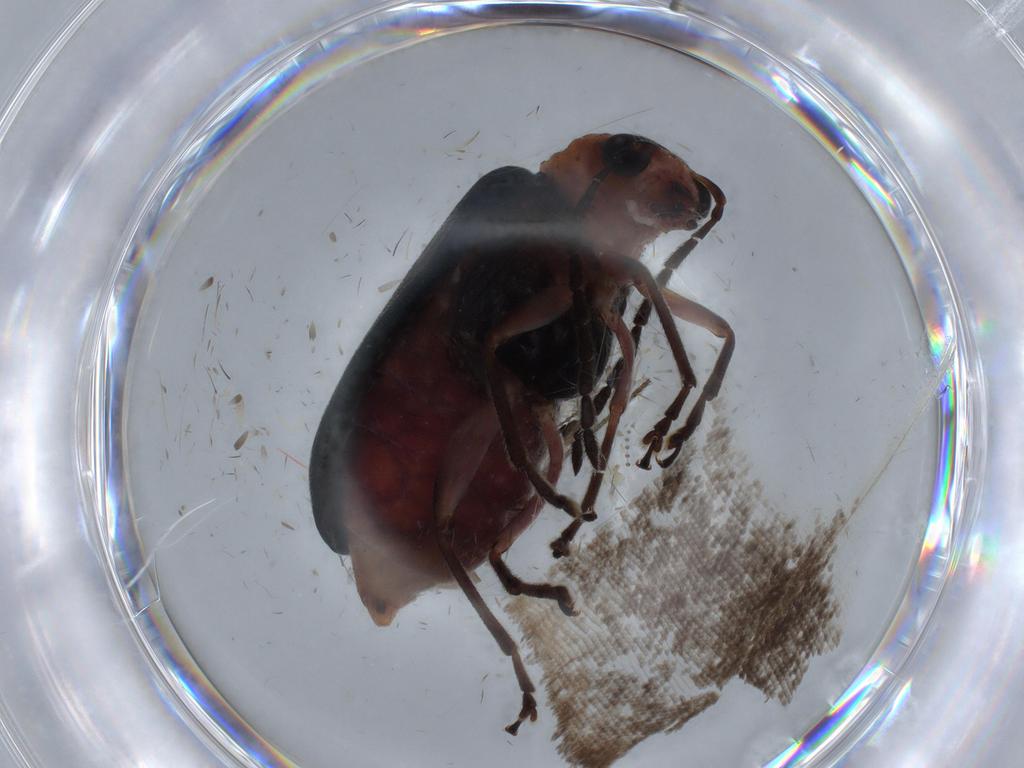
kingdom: Animalia
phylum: Arthropoda
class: Insecta
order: Coleoptera
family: Chrysomelidae
